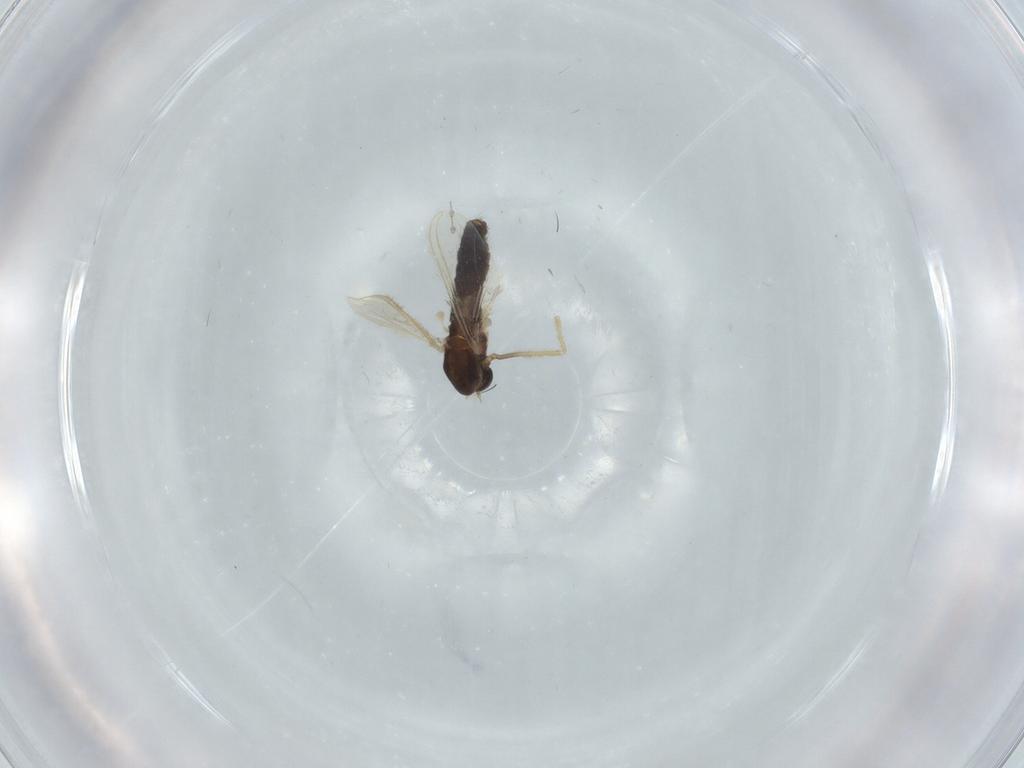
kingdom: Animalia
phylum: Arthropoda
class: Insecta
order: Diptera
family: Chironomidae
